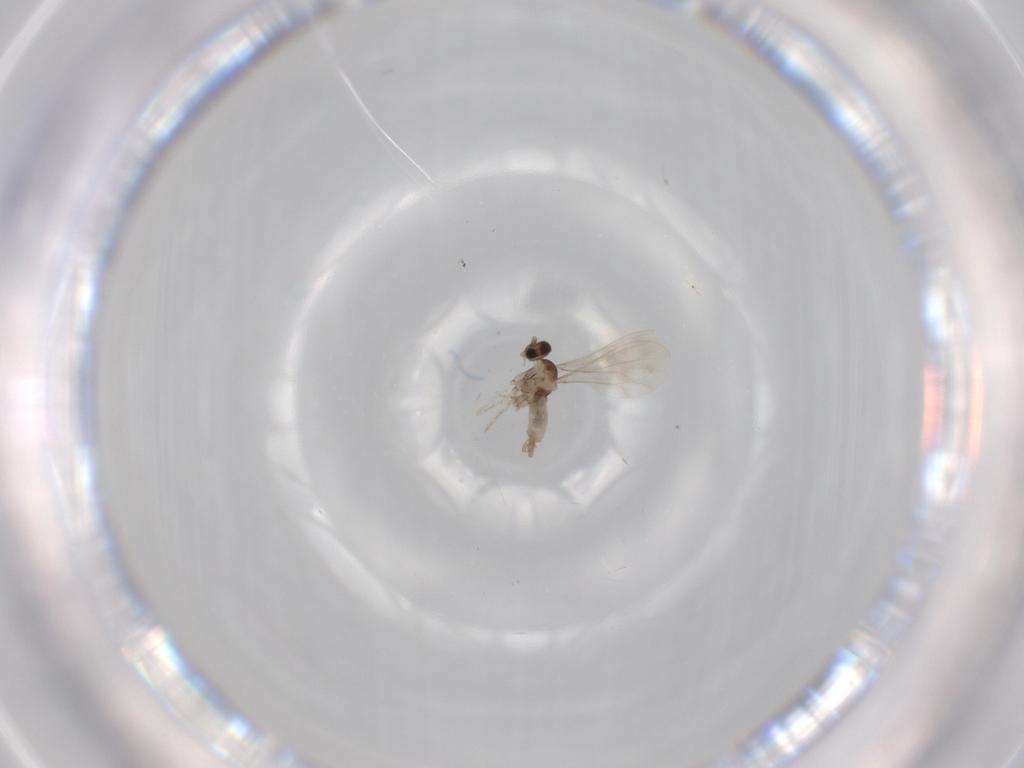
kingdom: Animalia
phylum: Arthropoda
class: Insecta
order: Diptera
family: Cecidomyiidae
